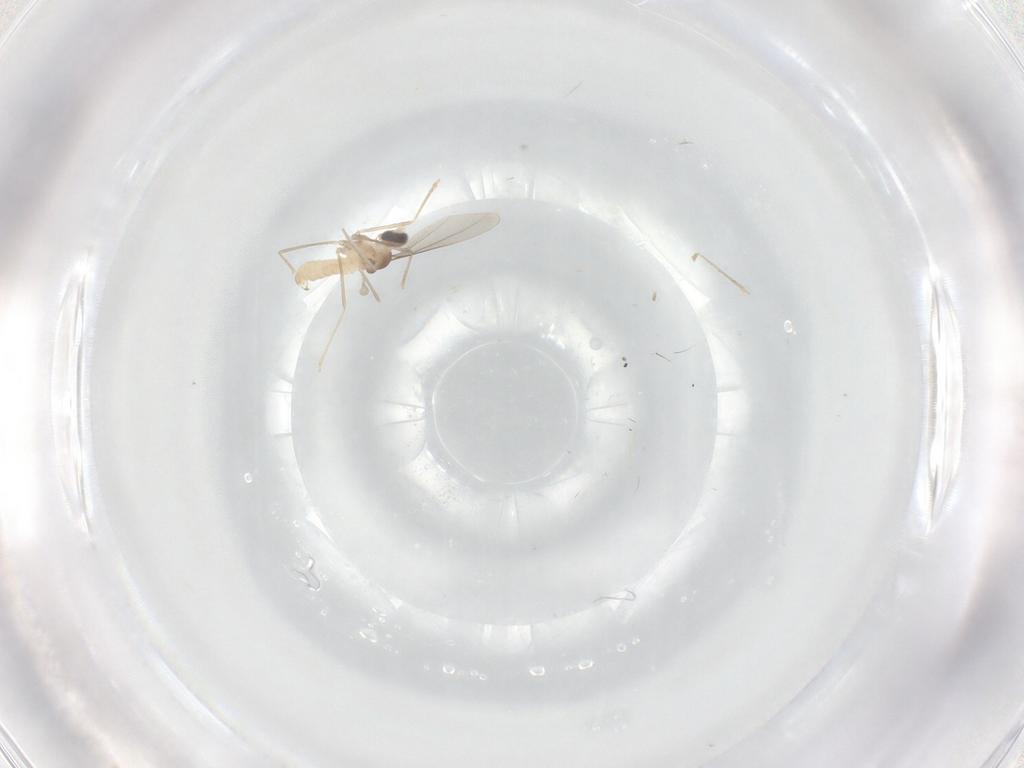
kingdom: Animalia
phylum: Arthropoda
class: Insecta
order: Diptera
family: Cecidomyiidae
